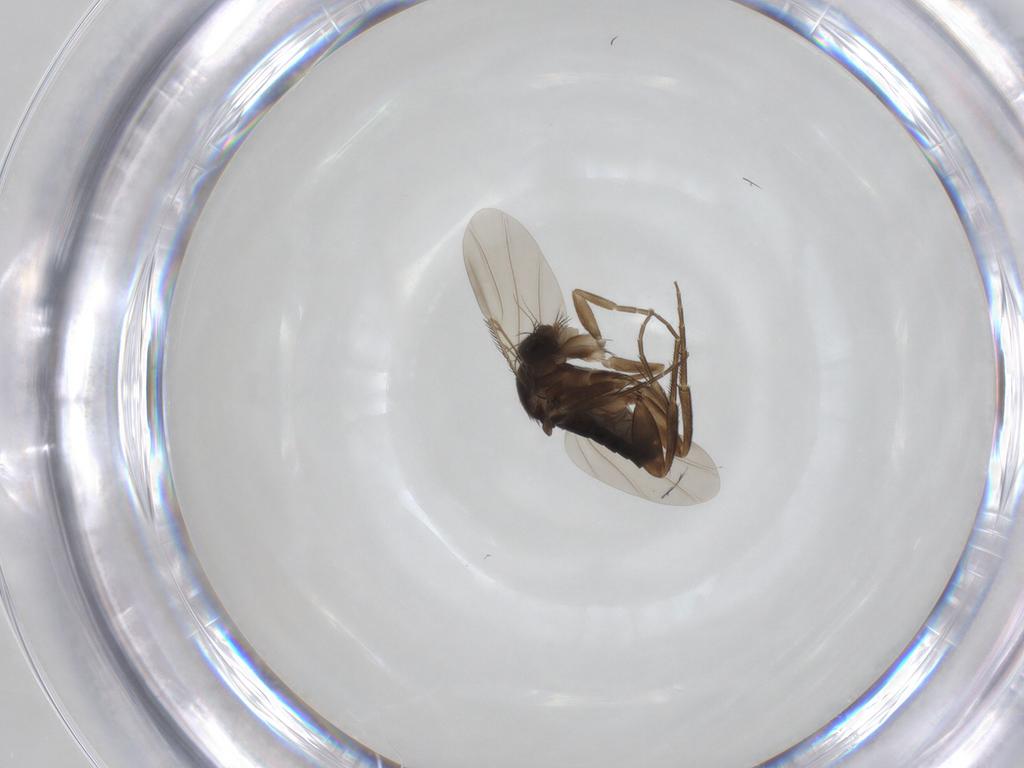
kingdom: Animalia
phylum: Arthropoda
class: Insecta
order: Diptera
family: Phoridae
